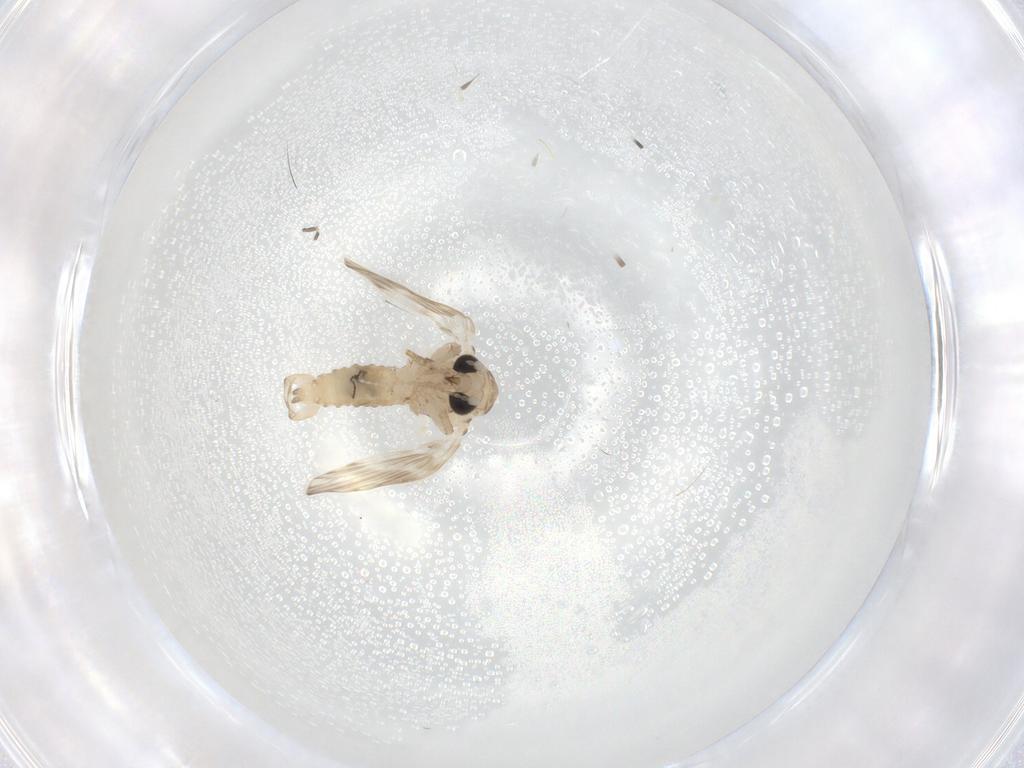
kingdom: Animalia
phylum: Arthropoda
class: Insecta
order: Diptera
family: Psychodidae
